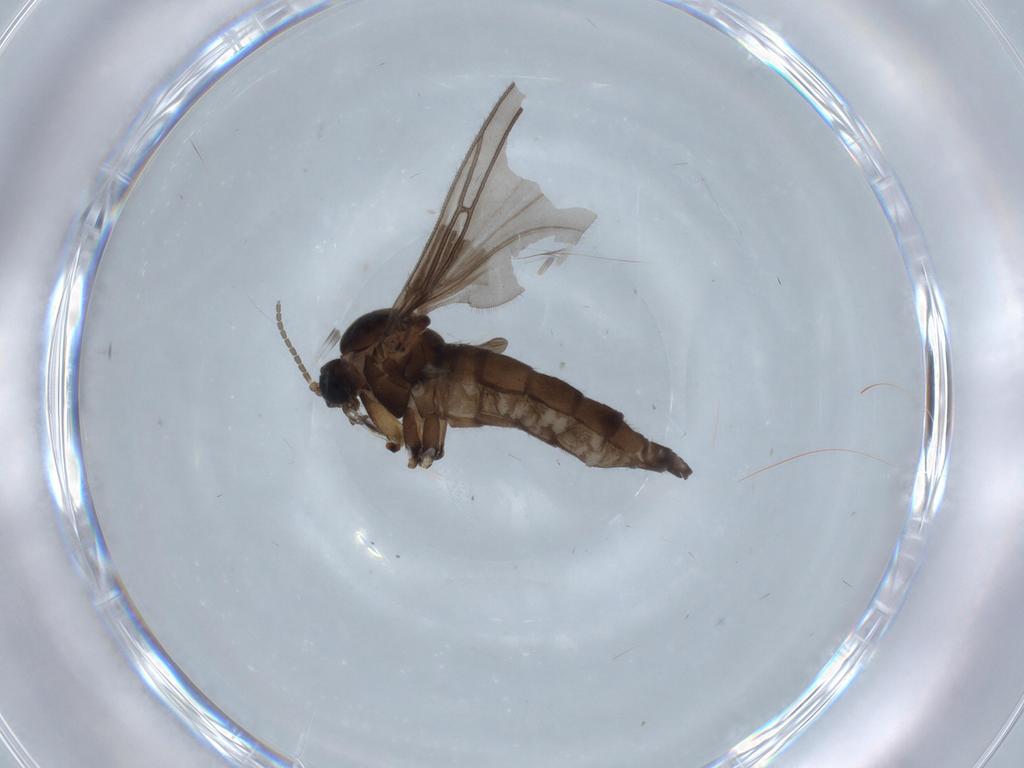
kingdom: Animalia
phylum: Arthropoda
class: Insecta
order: Diptera
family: Sciaridae
